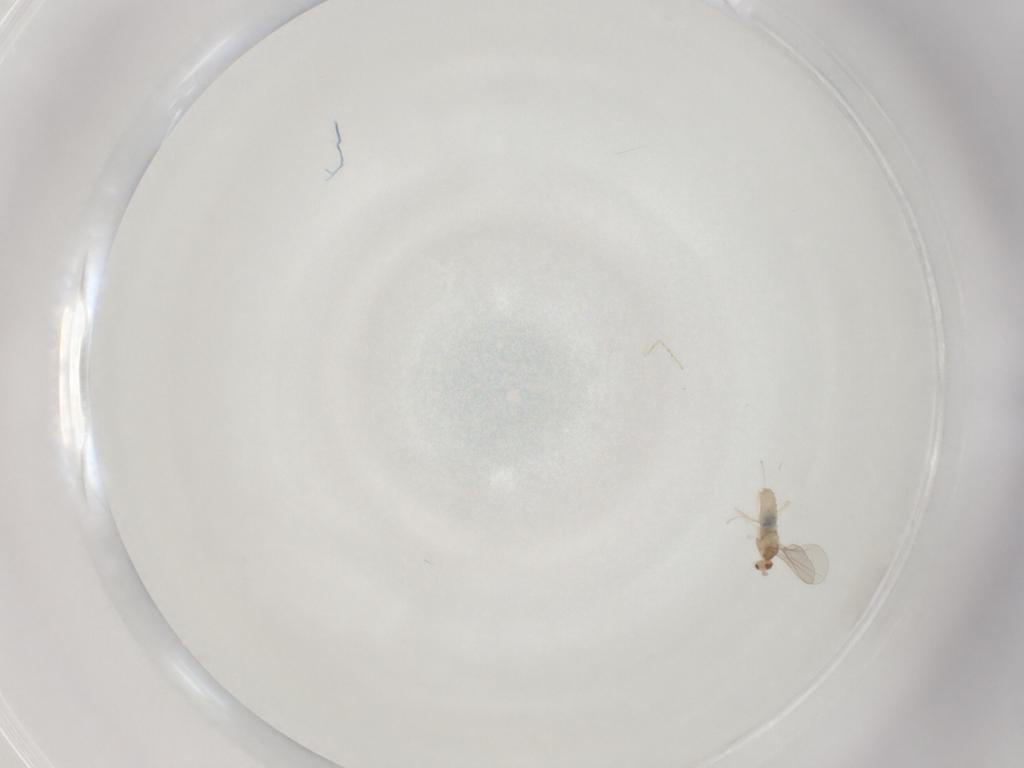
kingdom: Animalia
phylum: Arthropoda
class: Insecta
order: Diptera
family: Cecidomyiidae
